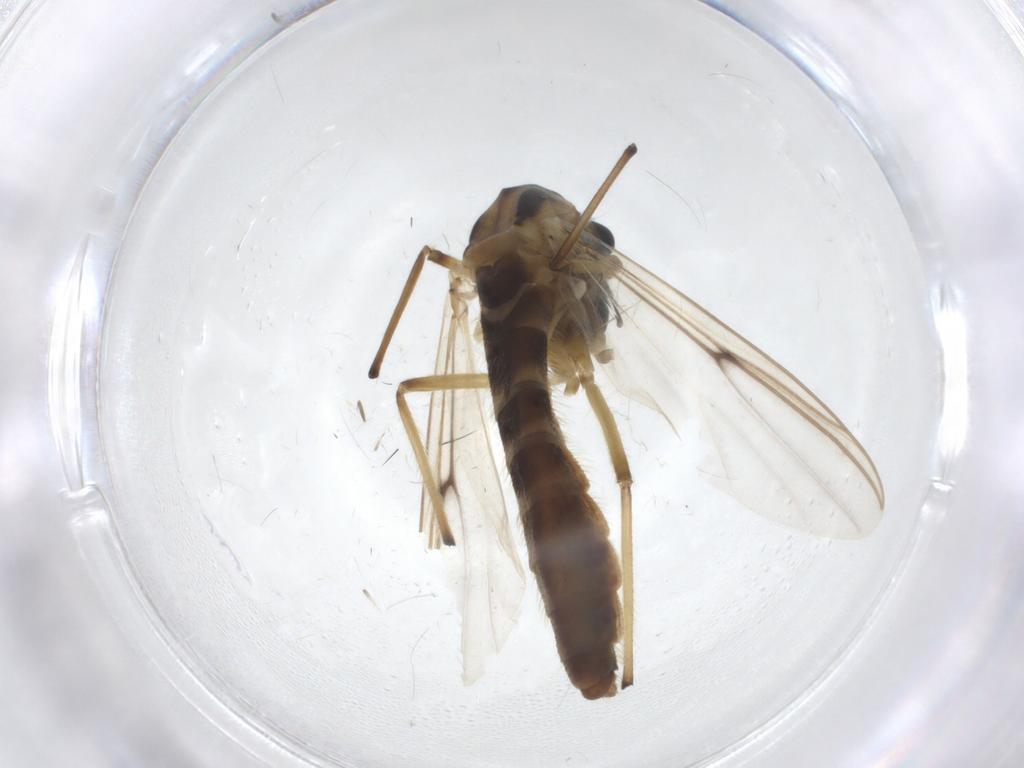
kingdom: Animalia
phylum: Arthropoda
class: Insecta
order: Diptera
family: Chironomidae
